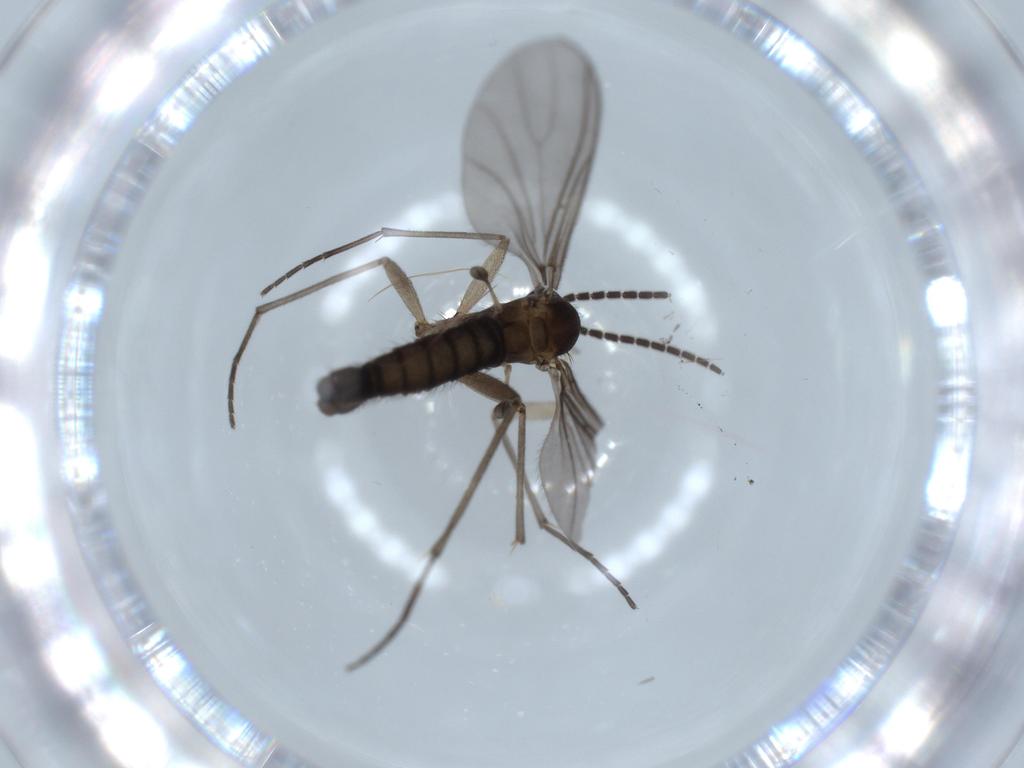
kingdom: Animalia
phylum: Arthropoda
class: Insecta
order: Diptera
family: Sciaridae
